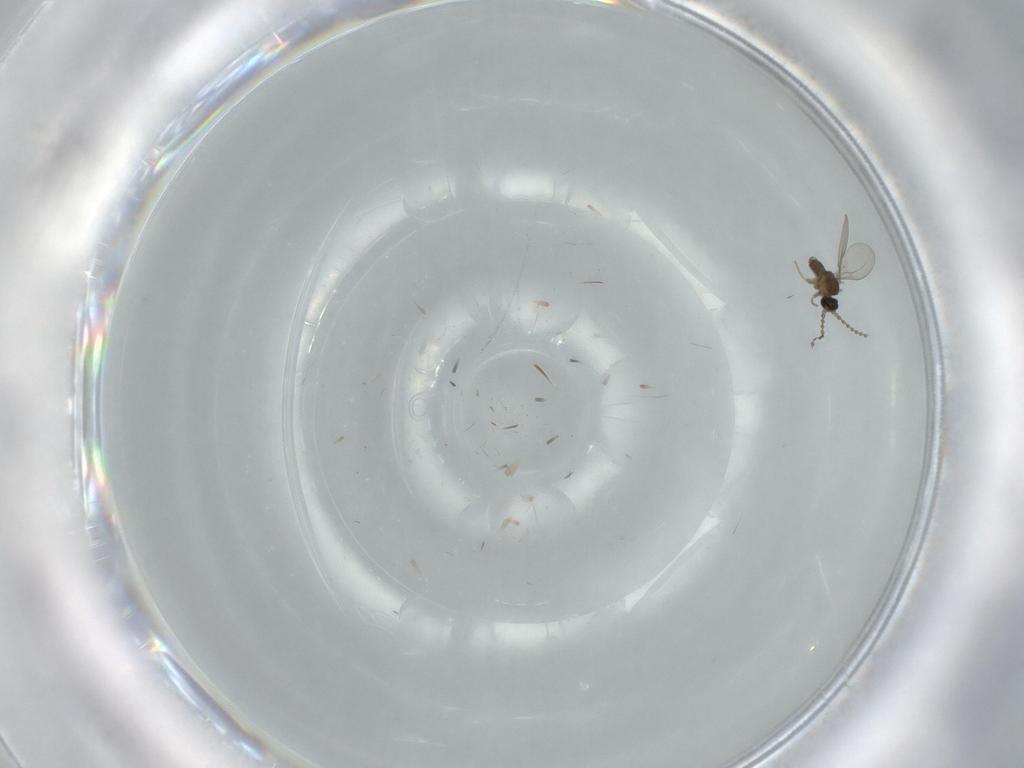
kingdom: Animalia
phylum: Arthropoda
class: Insecta
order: Diptera
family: Cecidomyiidae
